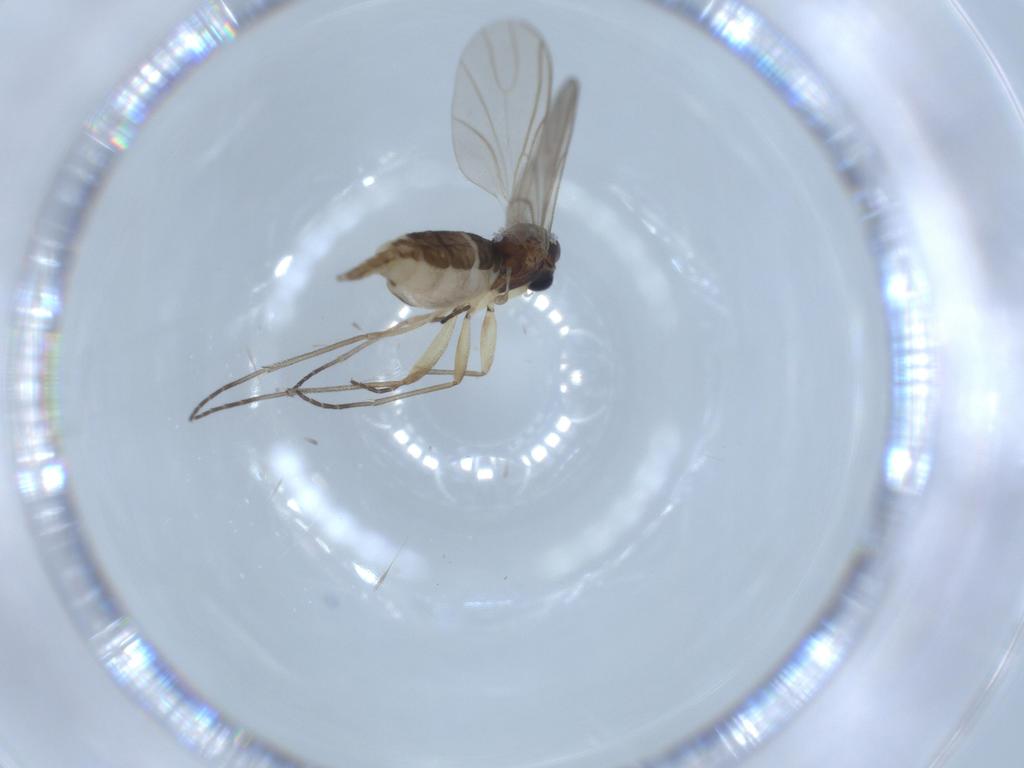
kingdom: Animalia
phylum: Arthropoda
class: Insecta
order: Diptera
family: Sciaridae
